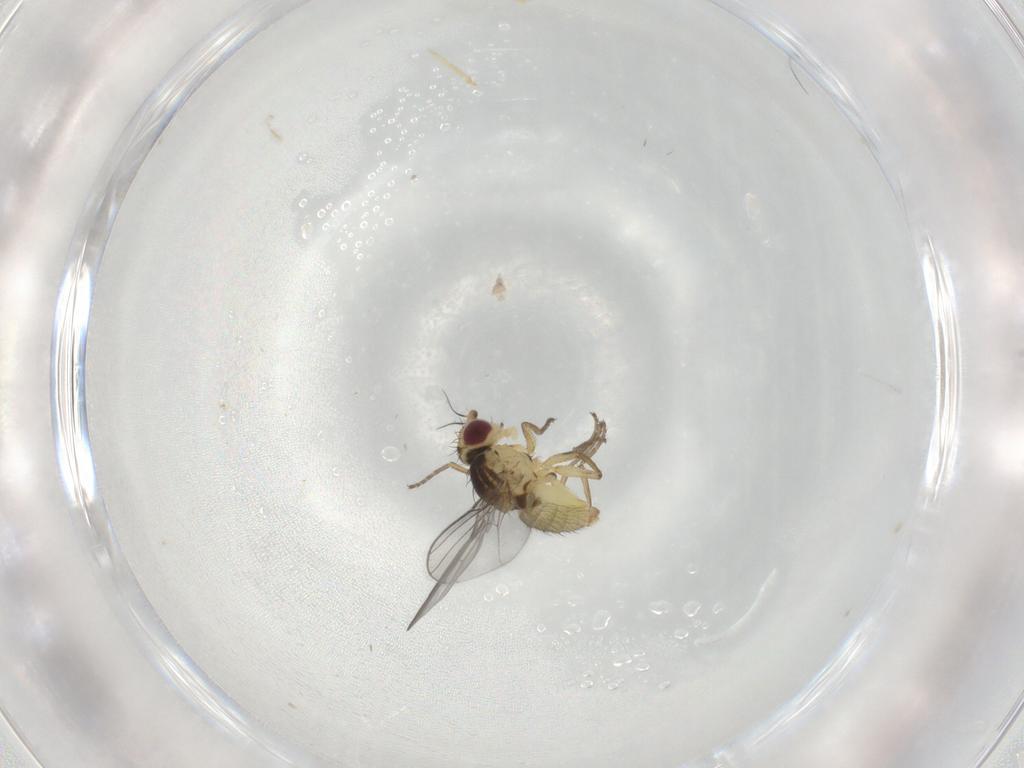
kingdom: Animalia
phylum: Arthropoda
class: Insecta
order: Diptera
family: Agromyzidae
